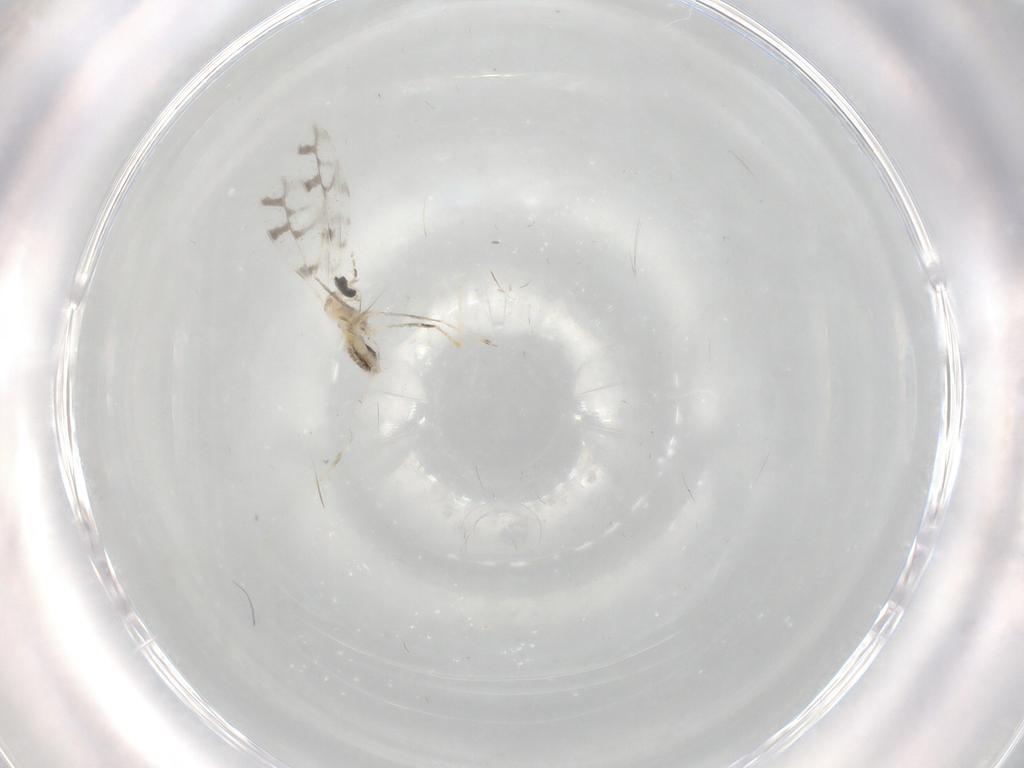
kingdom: Animalia
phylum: Arthropoda
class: Insecta
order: Diptera
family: Cecidomyiidae
